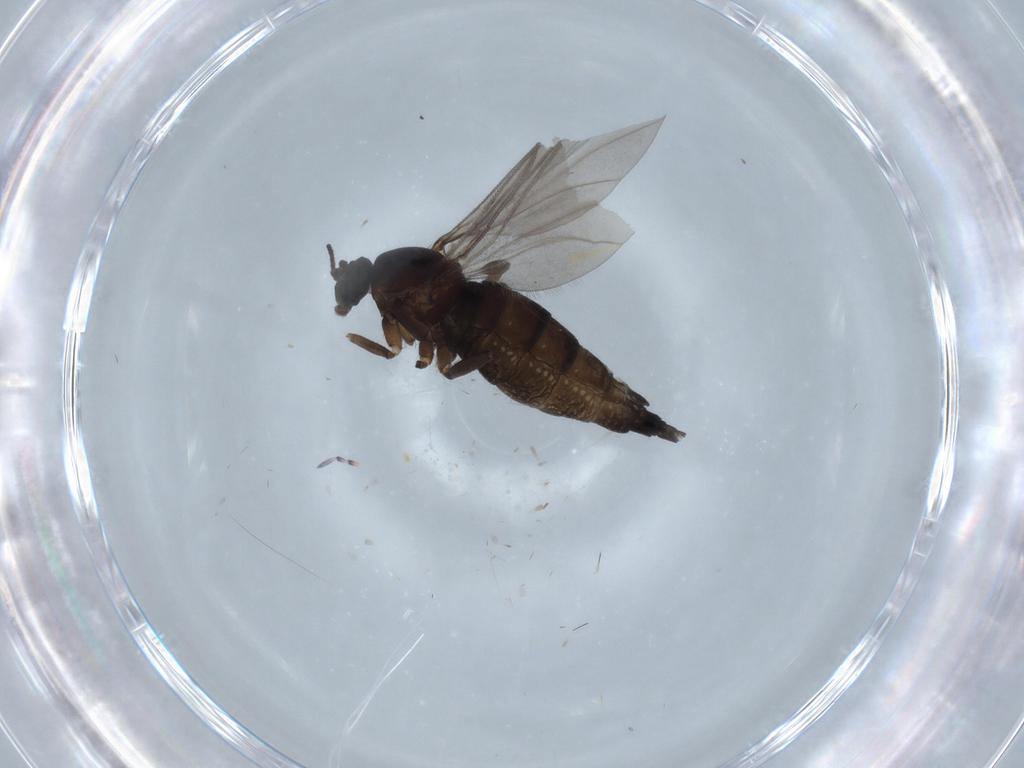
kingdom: Animalia
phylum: Arthropoda
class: Insecta
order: Diptera
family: Sciaridae
